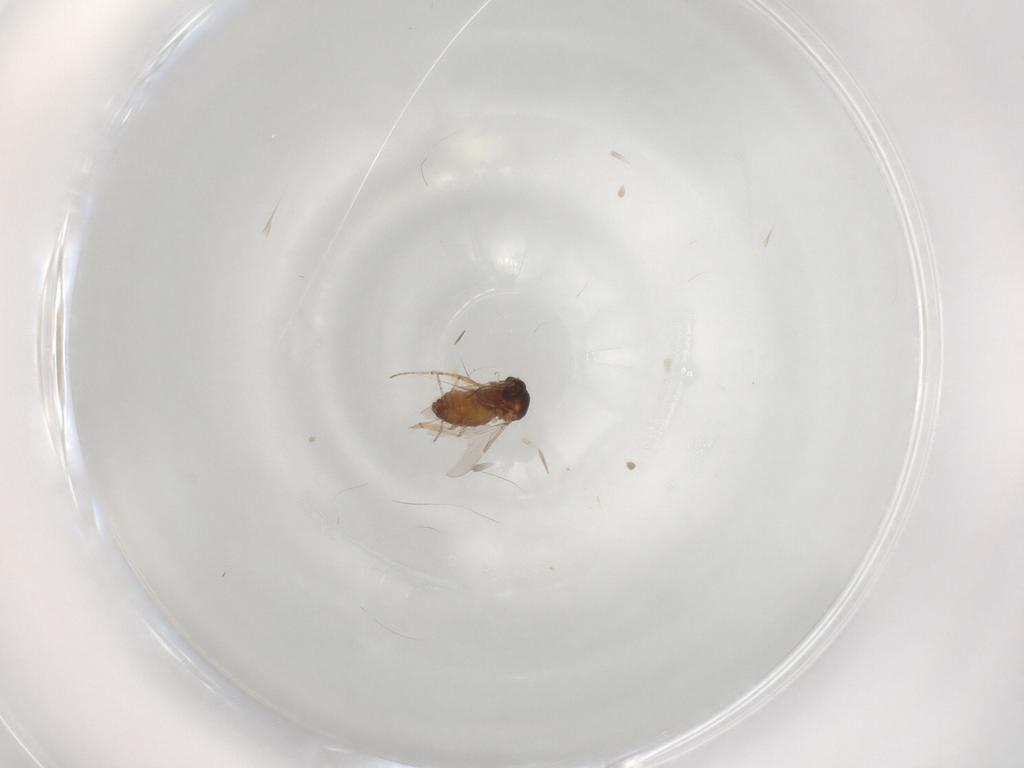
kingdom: Animalia
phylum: Arthropoda
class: Insecta
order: Diptera
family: Ceratopogonidae
